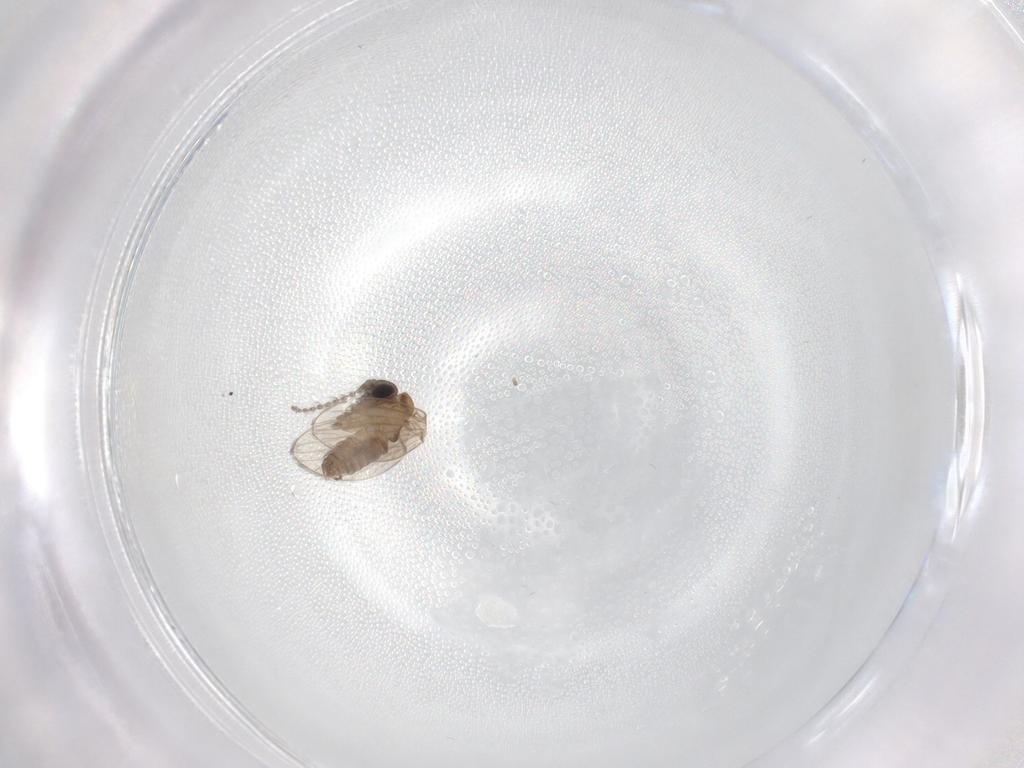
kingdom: Animalia
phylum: Arthropoda
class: Insecta
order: Diptera
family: Psychodidae
